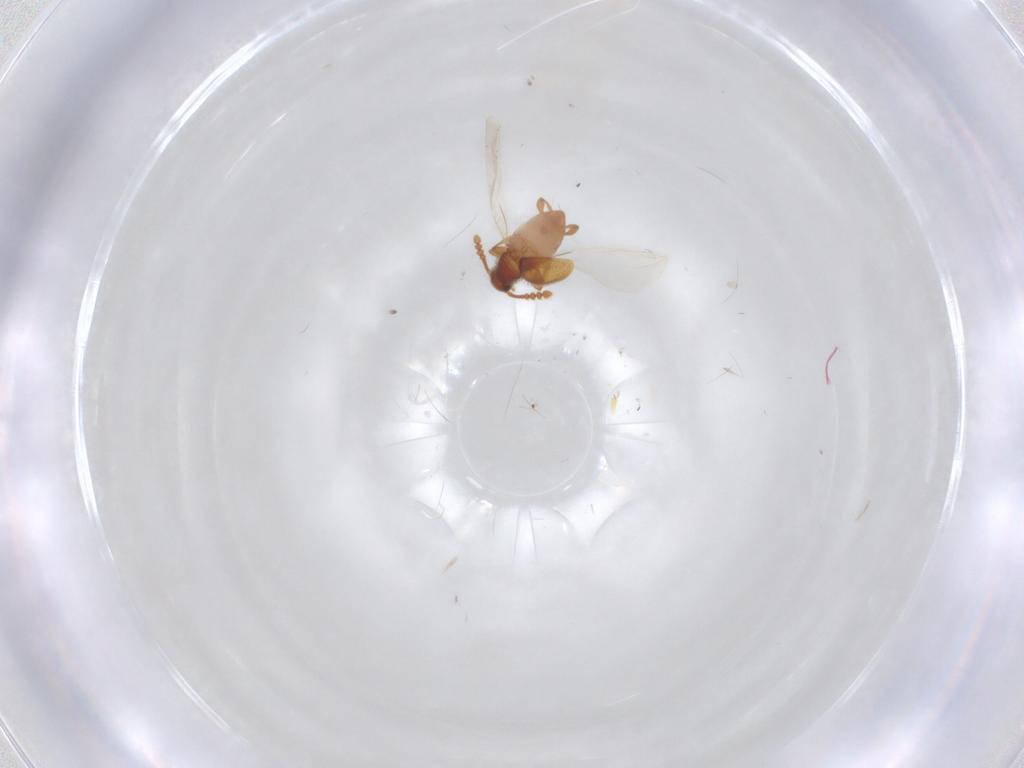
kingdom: Animalia
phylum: Arthropoda
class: Insecta
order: Coleoptera
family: Staphylinidae
